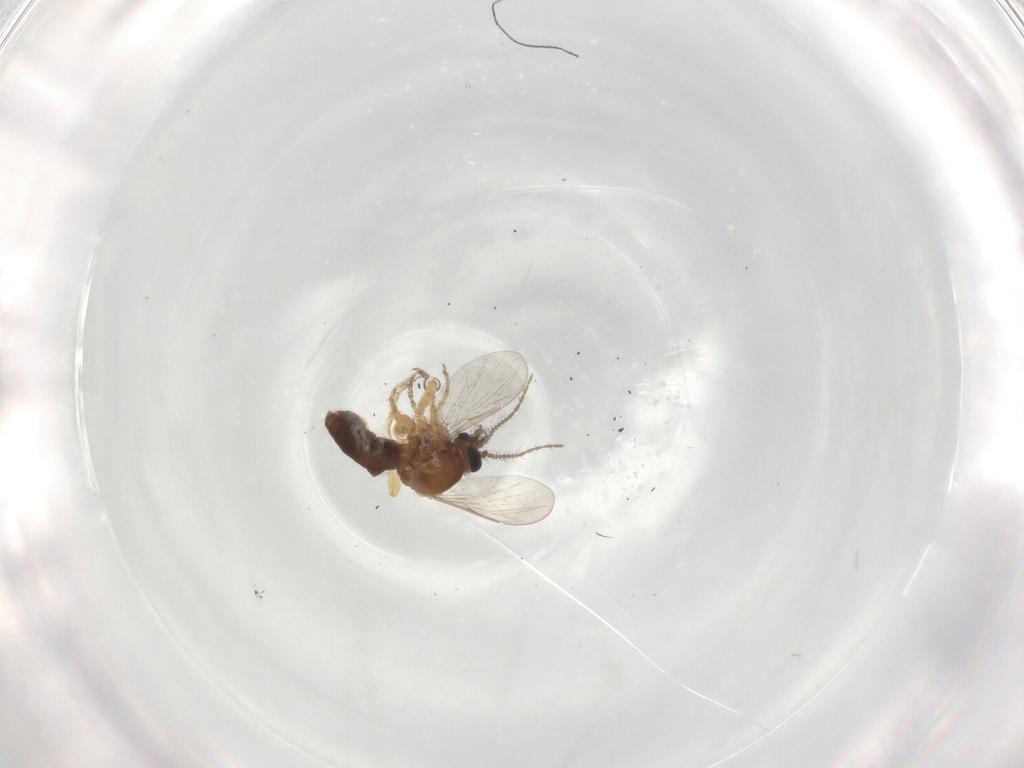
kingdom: Animalia
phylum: Arthropoda
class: Insecta
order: Diptera
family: Ceratopogonidae
